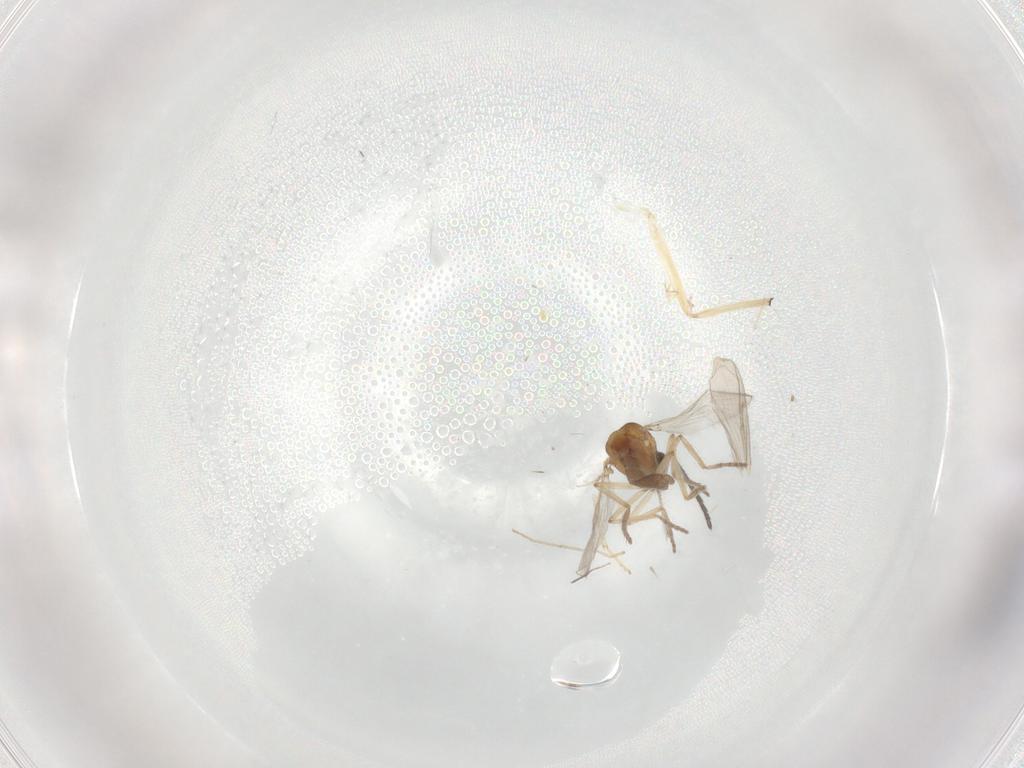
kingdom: Animalia
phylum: Arthropoda
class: Insecta
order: Diptera
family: Sciaridae
